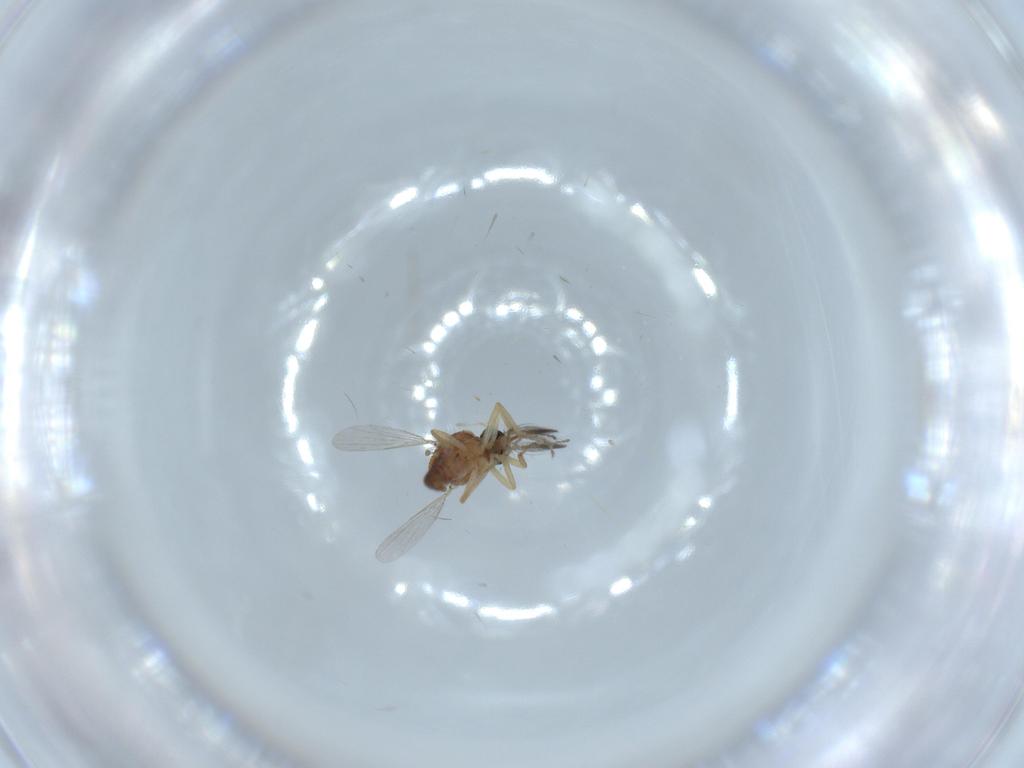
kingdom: Animalia
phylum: Arthropoda
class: Insecta
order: Diptera
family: Ceratopogonidae
